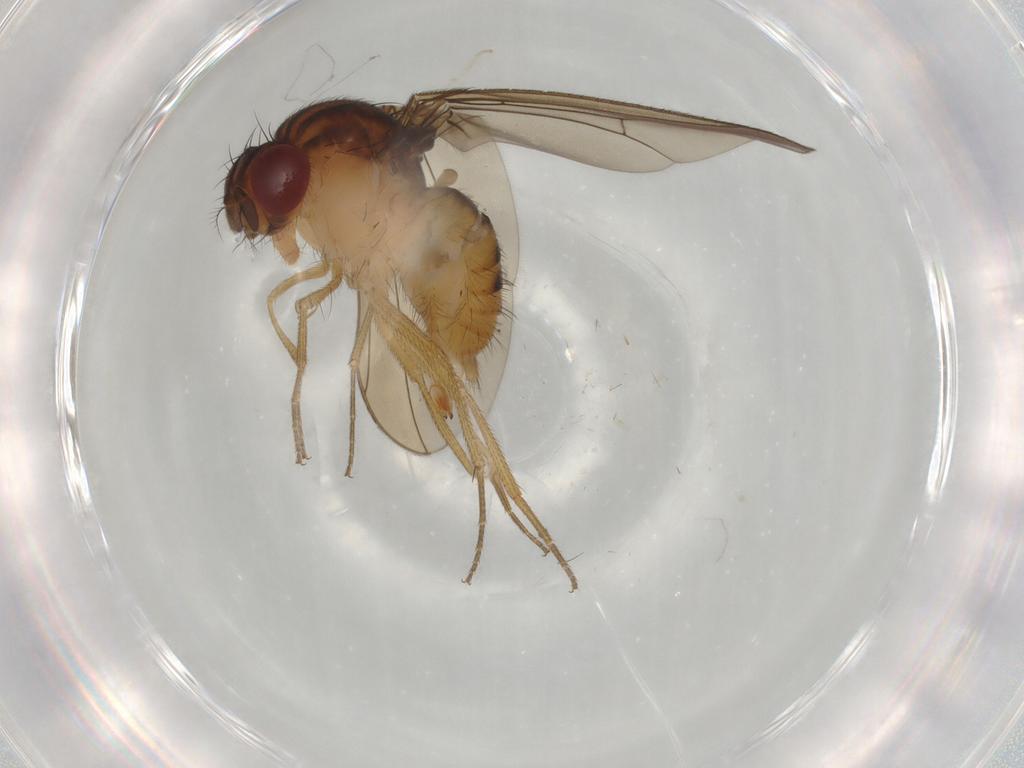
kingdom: Animalia
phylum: Arthropoda
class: Insecta
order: Diptera
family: Drosophilidae
